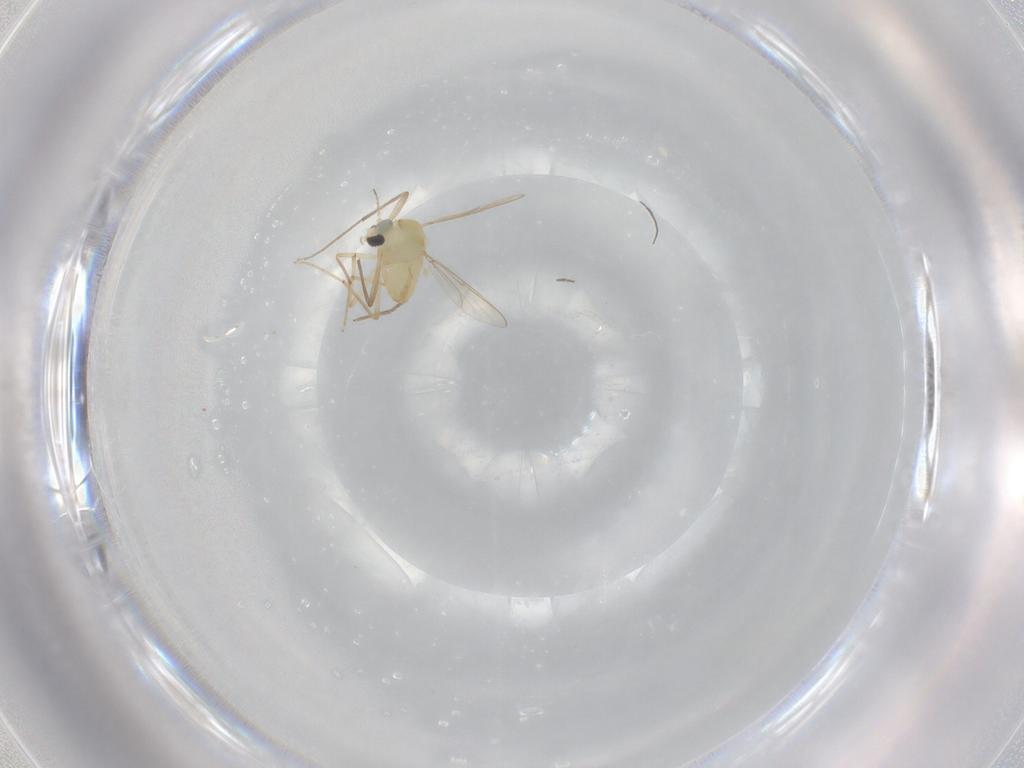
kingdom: Animalia
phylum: Arthropoda
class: Insecta
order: Diptera
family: Chironomidae
